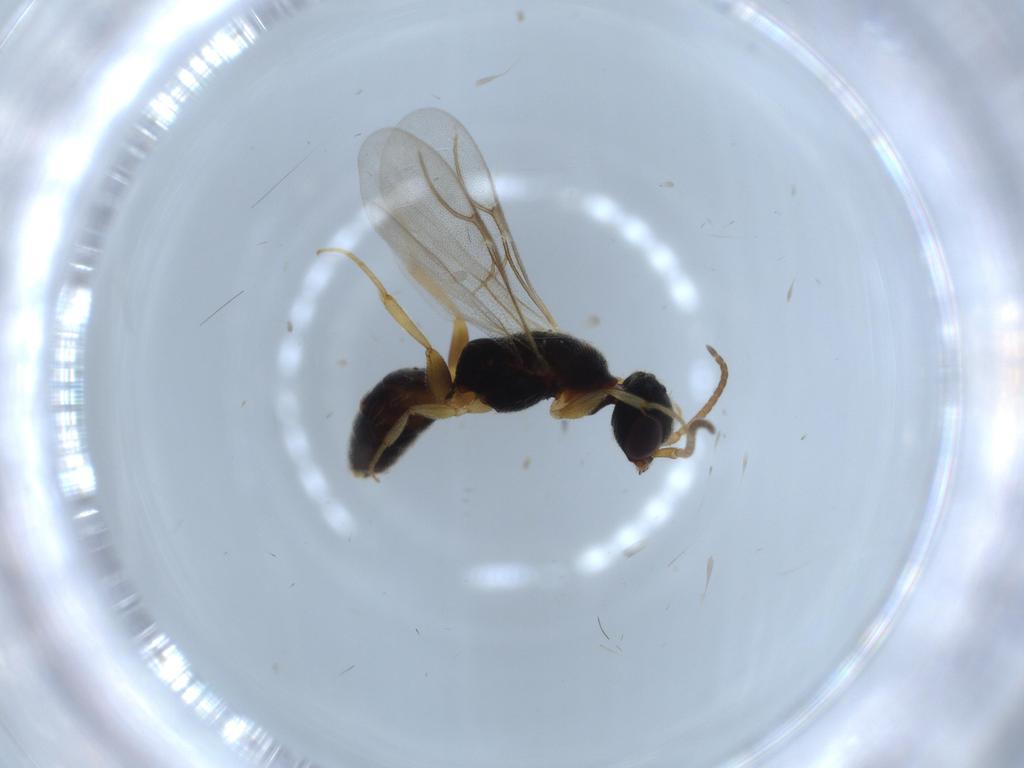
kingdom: Animalia
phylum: Arthropoda
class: Insecta
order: Hymenoptera
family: Bethylidae
